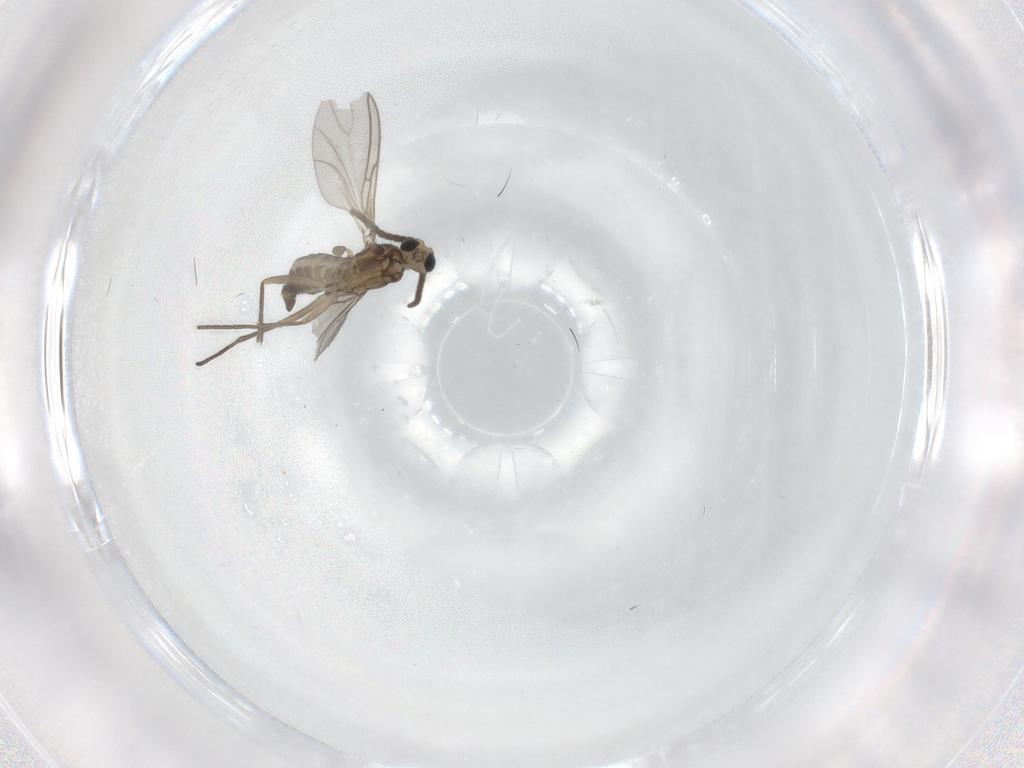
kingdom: Animalia
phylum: Arthropoda
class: Insecta
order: Diptera
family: Sciaridae
